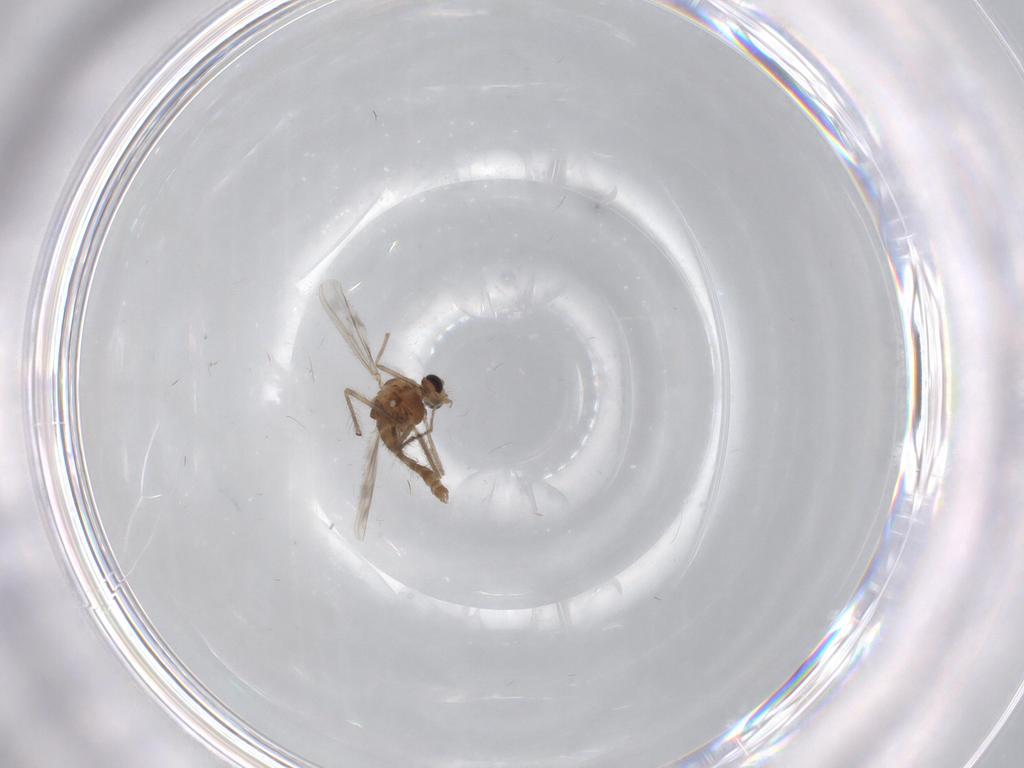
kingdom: Animalia
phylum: Arthropoda
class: Insecta
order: Diptera
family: Chironomidae
